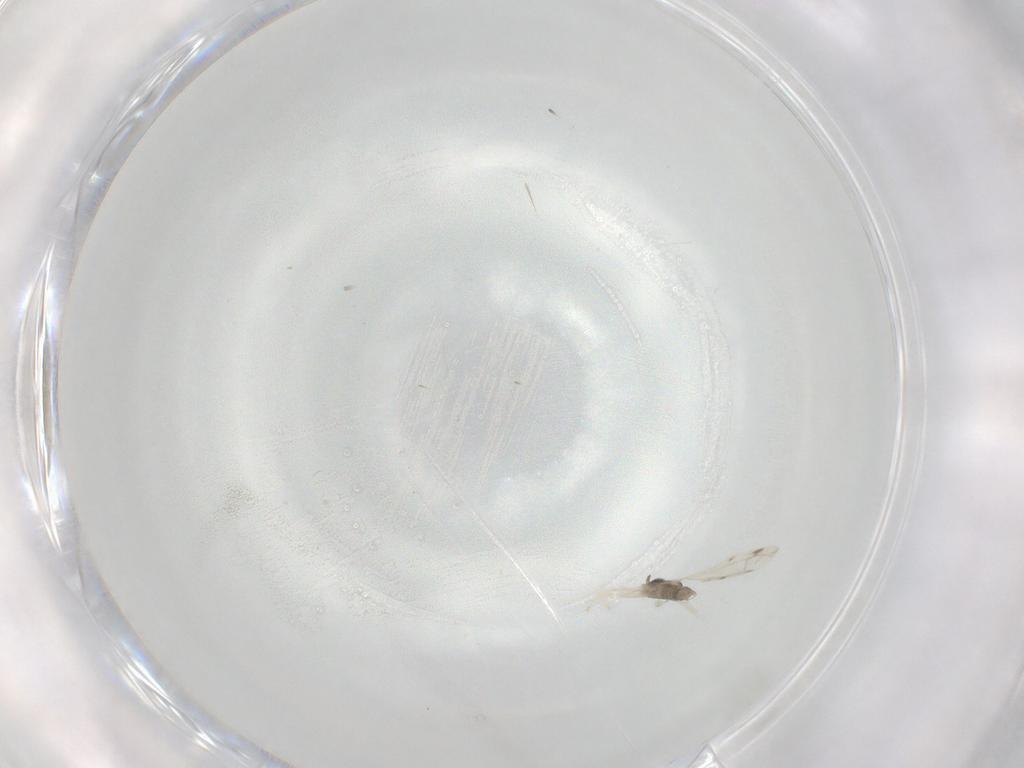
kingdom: Animalia
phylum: Arthropoda
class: Insecta
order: Diptera
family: Cecidomyiidae
